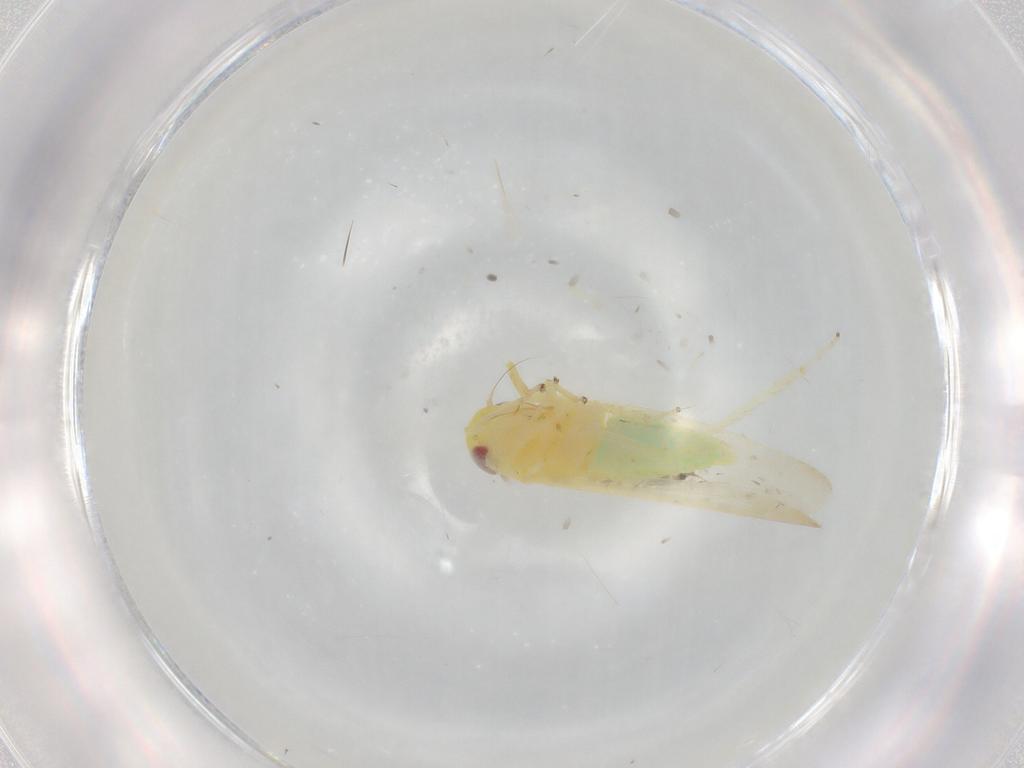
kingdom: Animalia
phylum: Arthropoda
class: Insecta
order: Hemiptera
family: Cicadellidae
